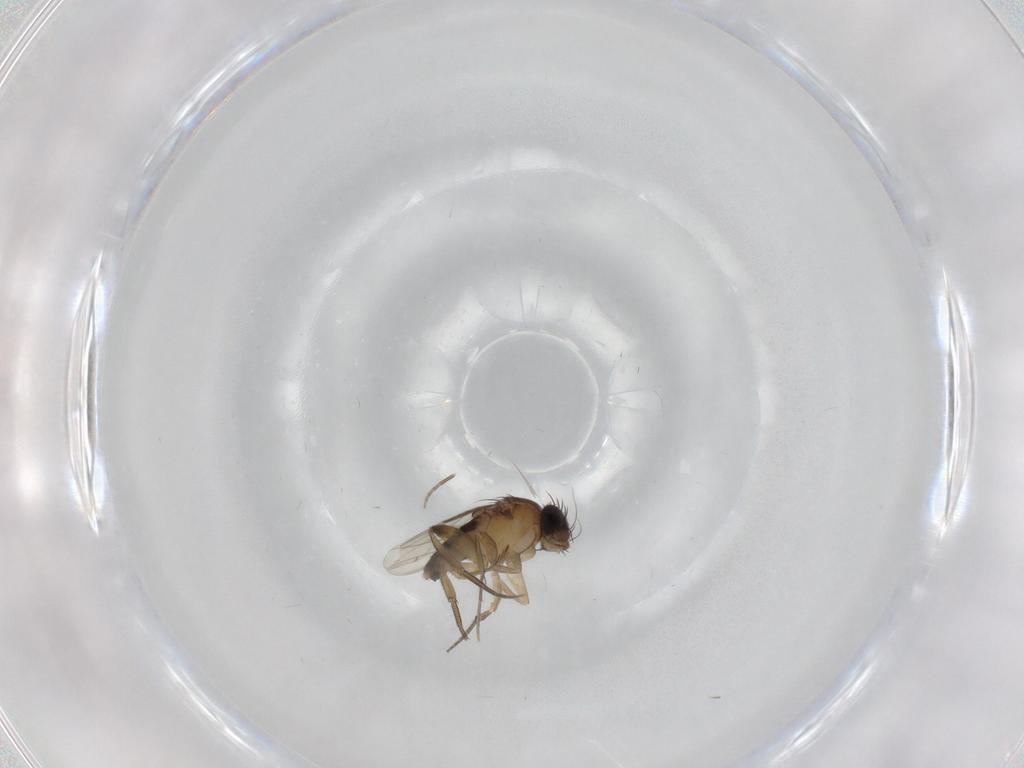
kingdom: Animalia
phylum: Arthropoda
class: Insecta
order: Diptera
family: Phoridae
